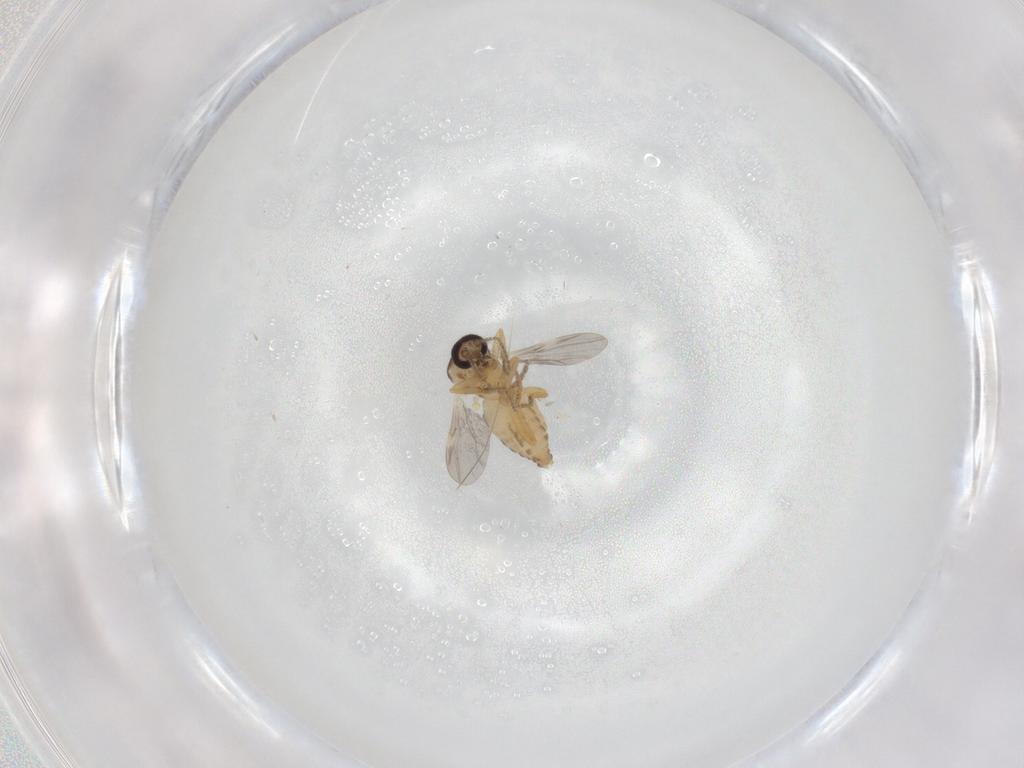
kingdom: Animalia
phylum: Arthropoda
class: Insecta
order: Diptera
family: Ceratopogonidae
